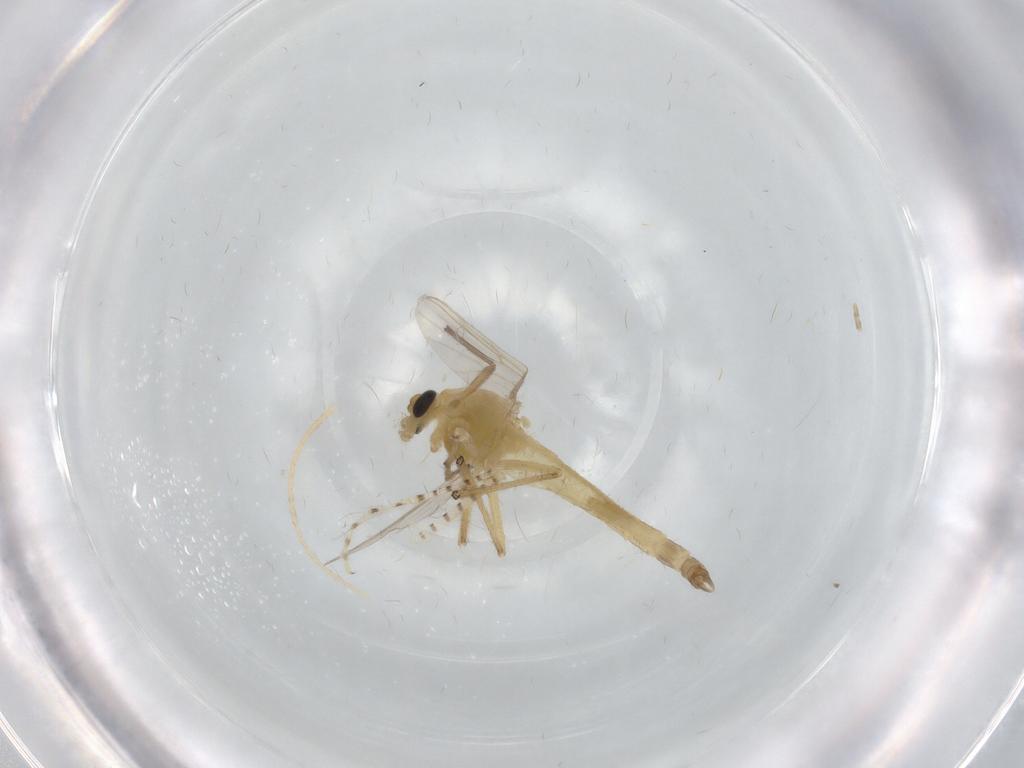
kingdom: Animalia
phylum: Arthropoda
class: Insecta
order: Diptera
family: Chironomidae
